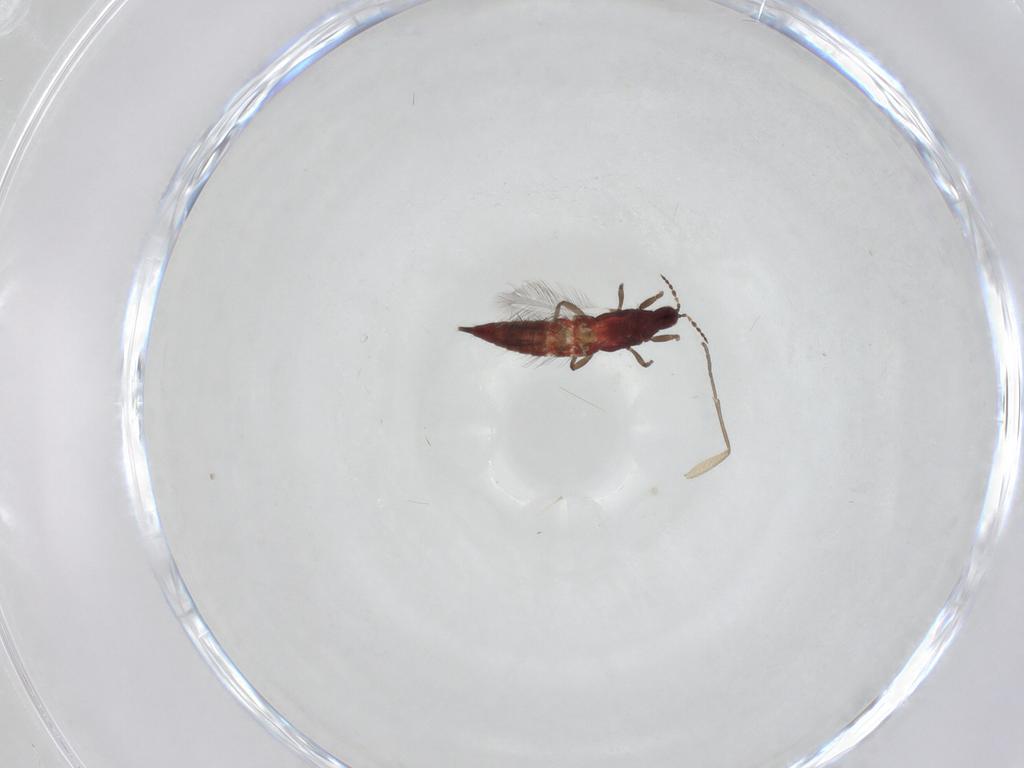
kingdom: Animalia
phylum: Arthropoda
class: Insecta
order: Thysanoptera
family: Phlaeothripidae
